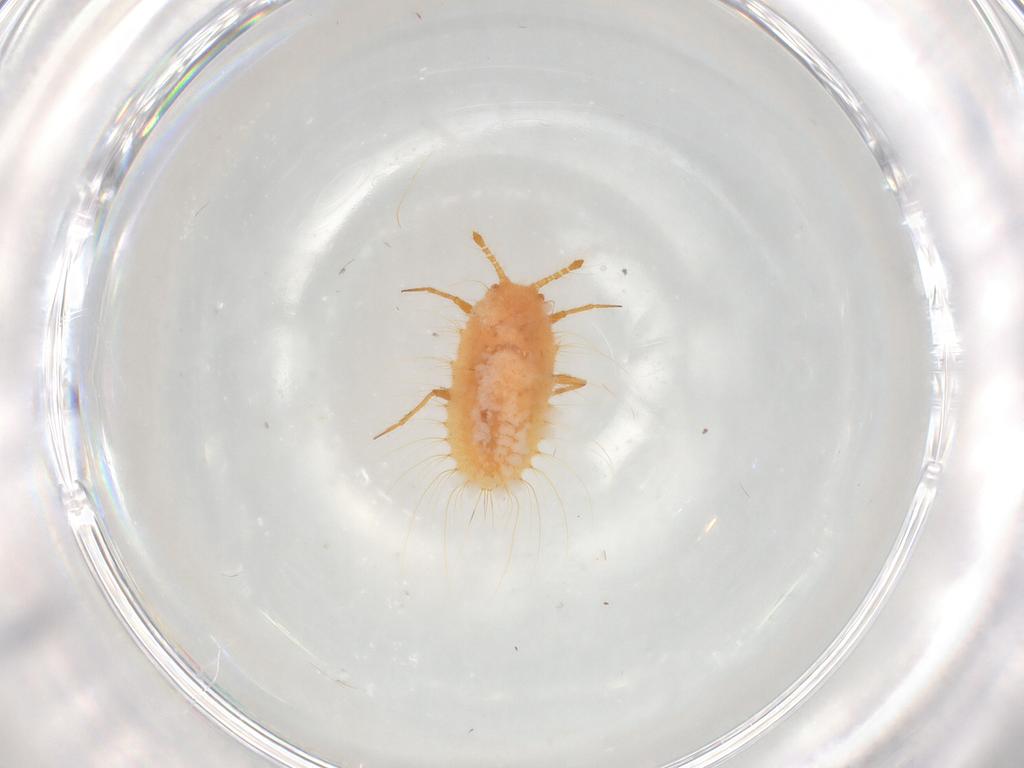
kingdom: Animalia
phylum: Arthropoda
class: Insecta
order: Hemiptera
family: Coccoidea_incertae_sedis
